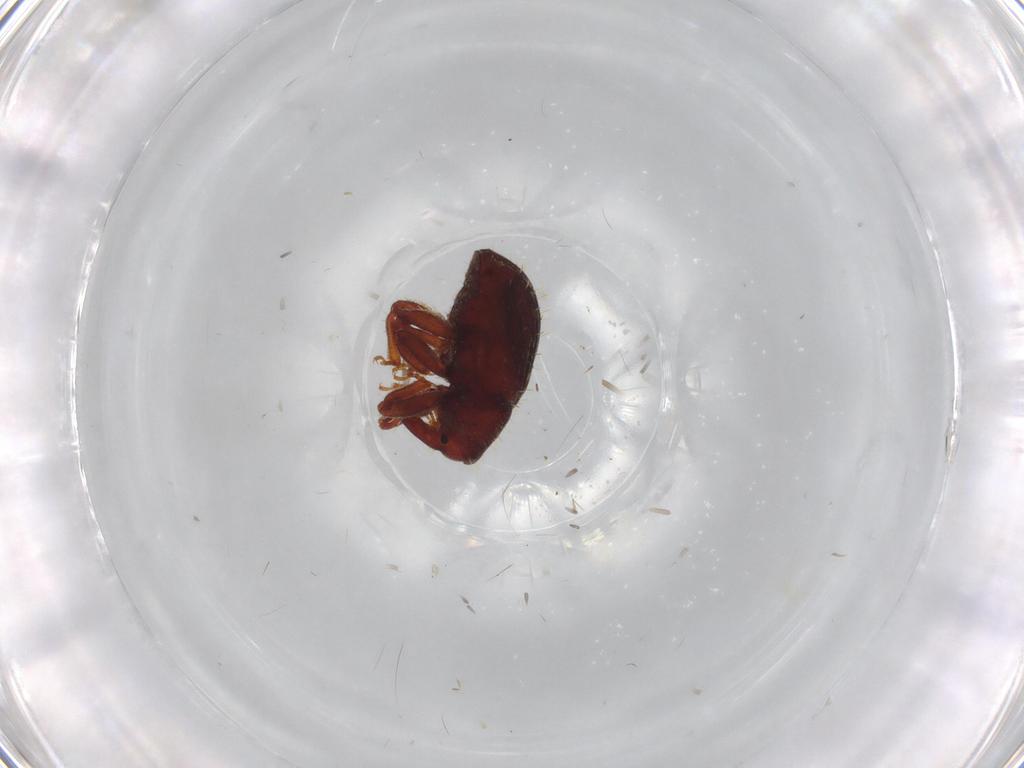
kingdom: Animalia
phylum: Arthropoda
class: Insecta
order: Coleoptera
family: Curculionidae
